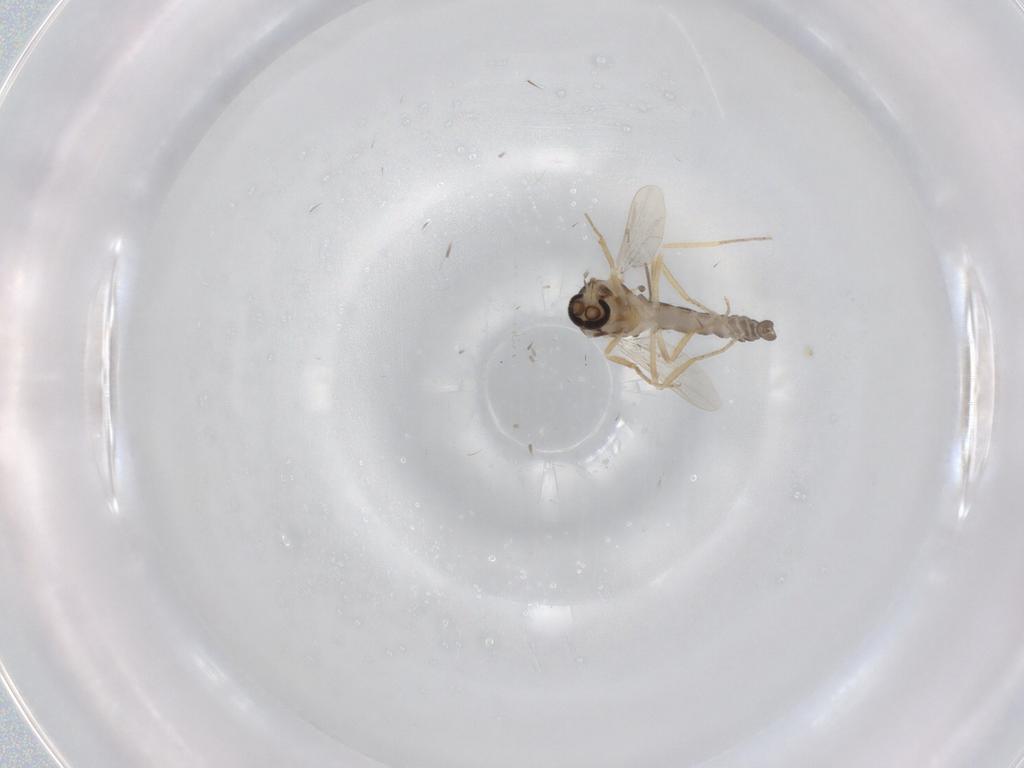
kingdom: Animalia
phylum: Arthropoda
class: Insecta
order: Diptera
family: Ceratopogonidae
